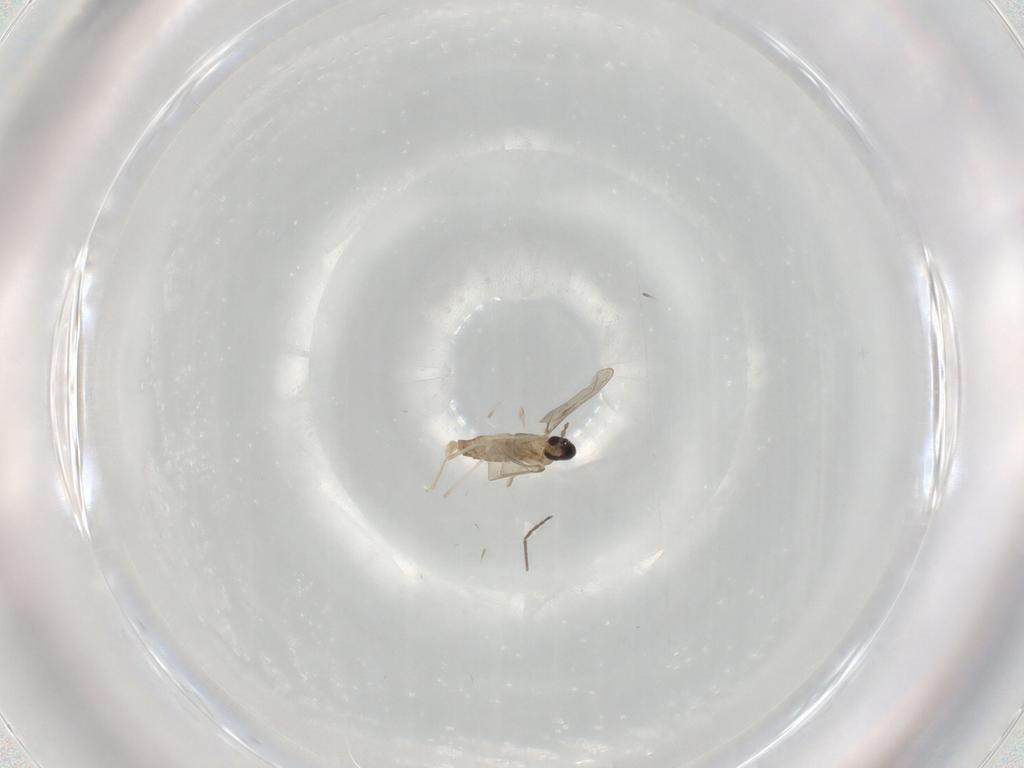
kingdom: Animalia
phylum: Arthropoda
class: Insecta
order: Diptera
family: Cecidomyiidae
